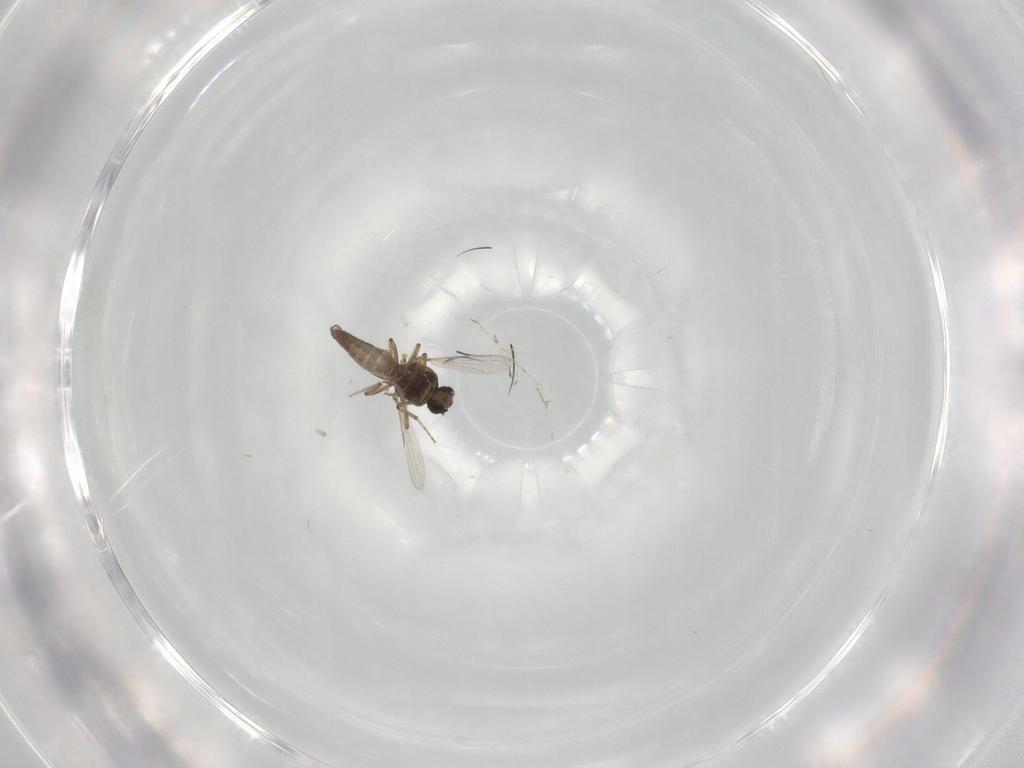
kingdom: Animalia
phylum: Arthropoda
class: Insecta
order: Diptera
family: Ceratopogonidae
